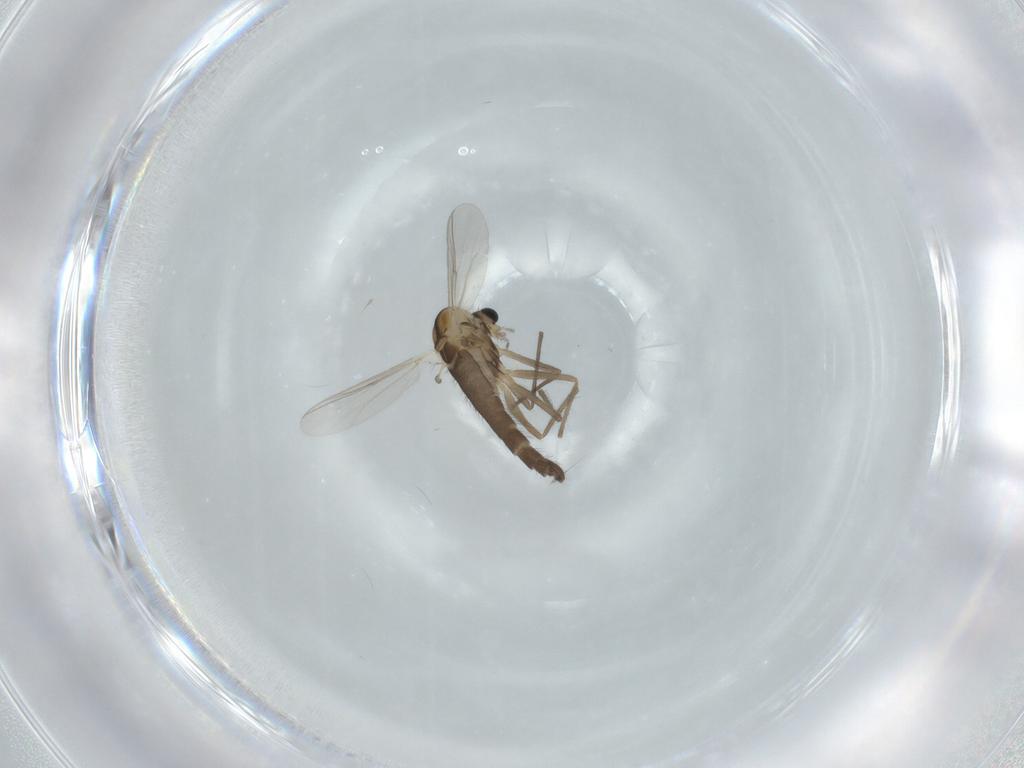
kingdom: Animalia
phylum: Arthropoda
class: Insecta
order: Diptera
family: Chironomidae
